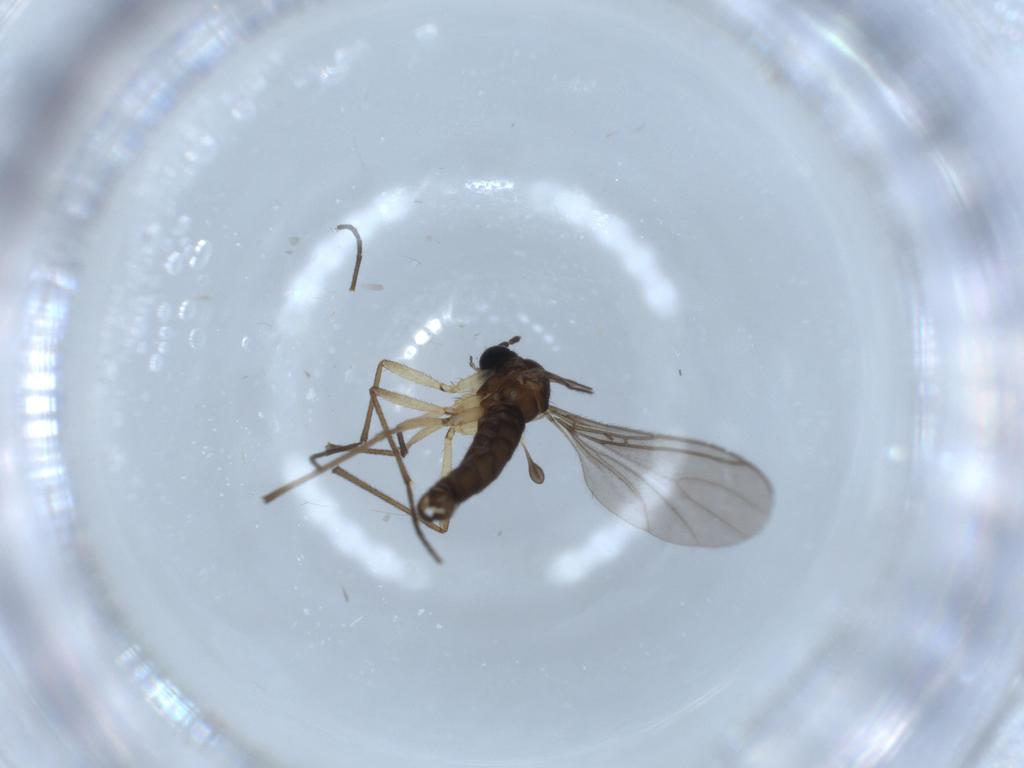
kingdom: Animalia
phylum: Arthropoda
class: Insecta
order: Diptera
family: Sciaridae
